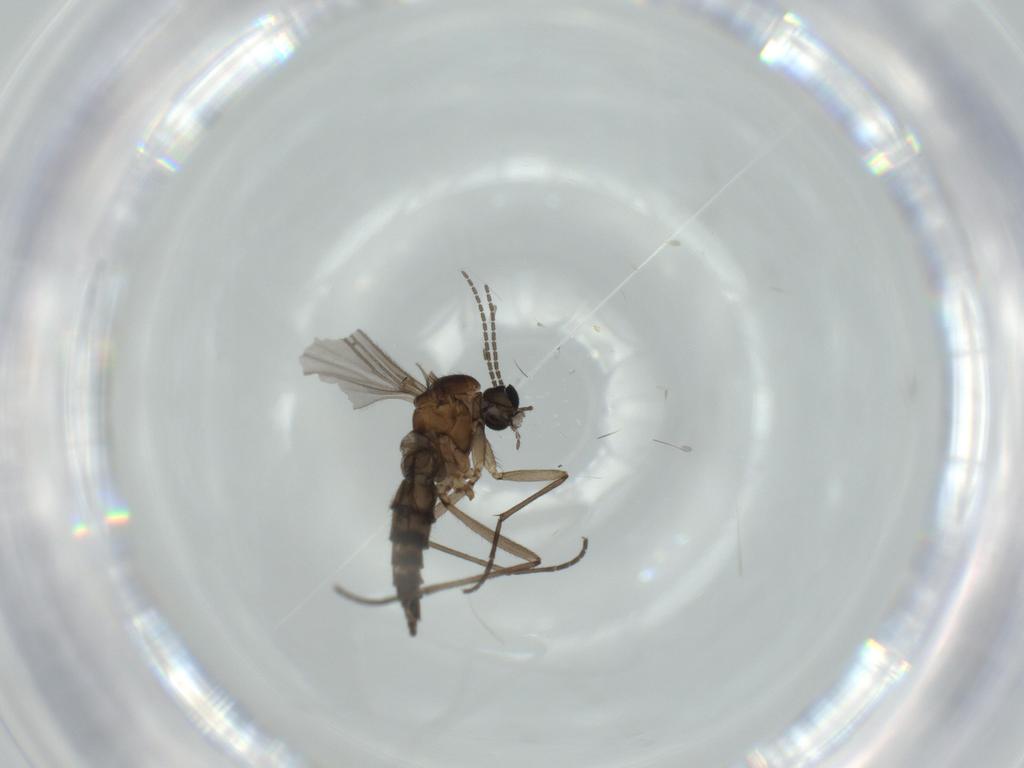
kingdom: Animalia
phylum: Arthropoda
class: Insecta
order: Diptera
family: Sciaridae
